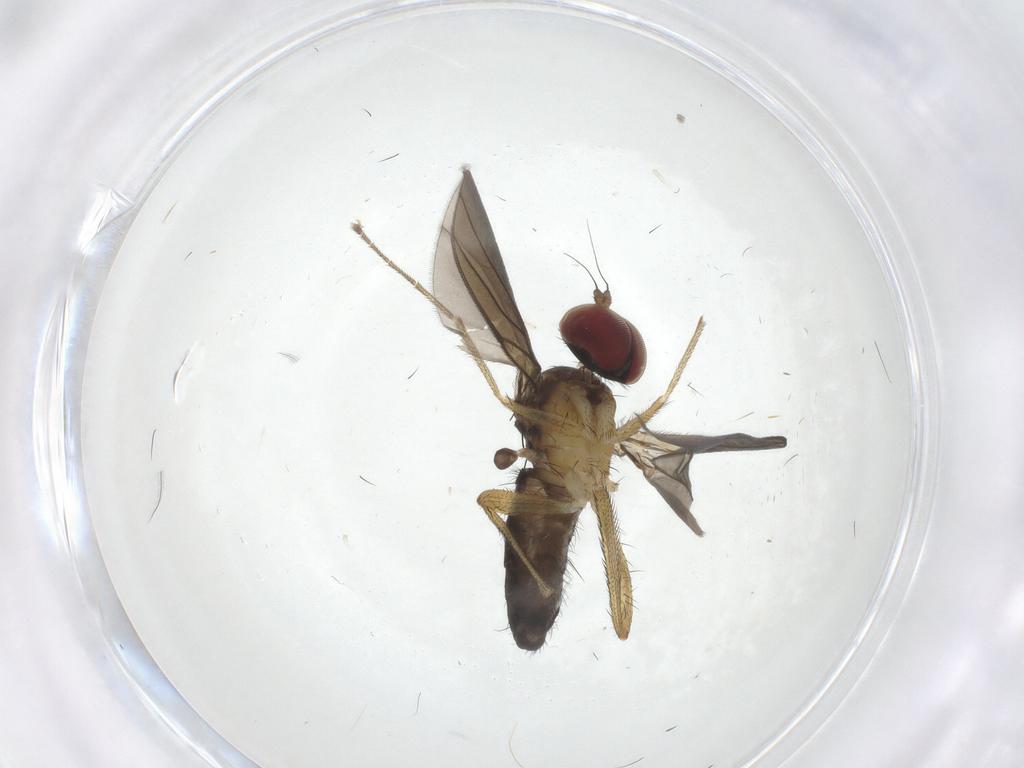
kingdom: Animalia
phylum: Arthropoda
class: Insecta
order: Diptera
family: Dolichopodidae
